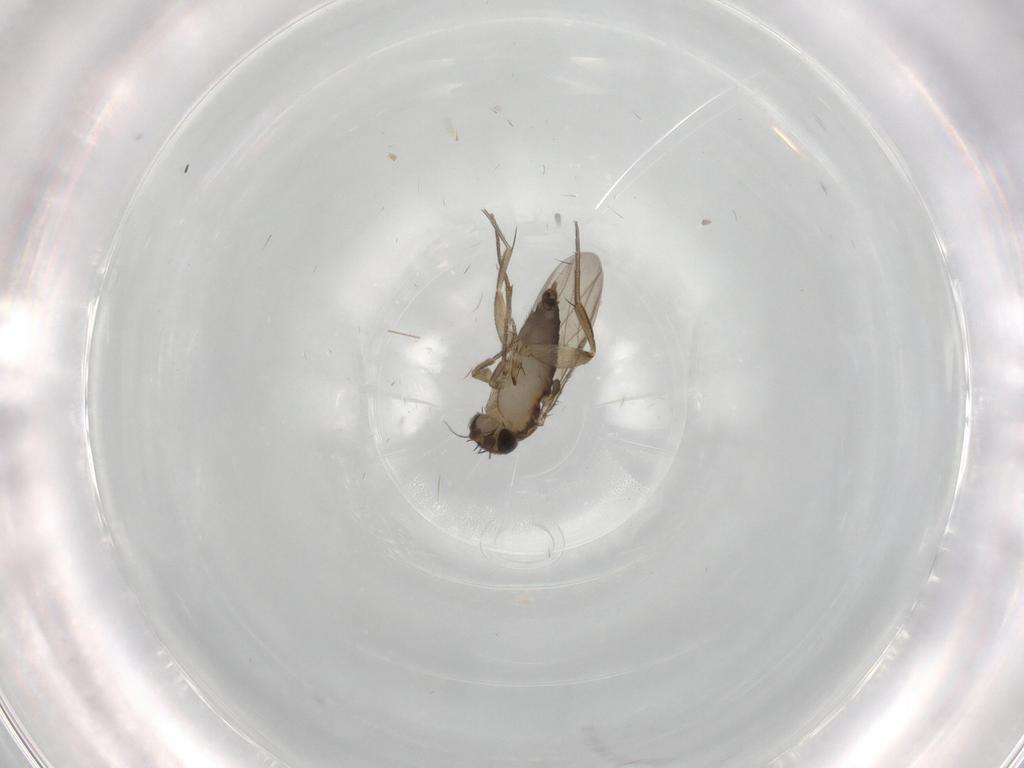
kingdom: Animalia
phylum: Arthropoda
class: Insecta
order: Diptera
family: Phoridae
